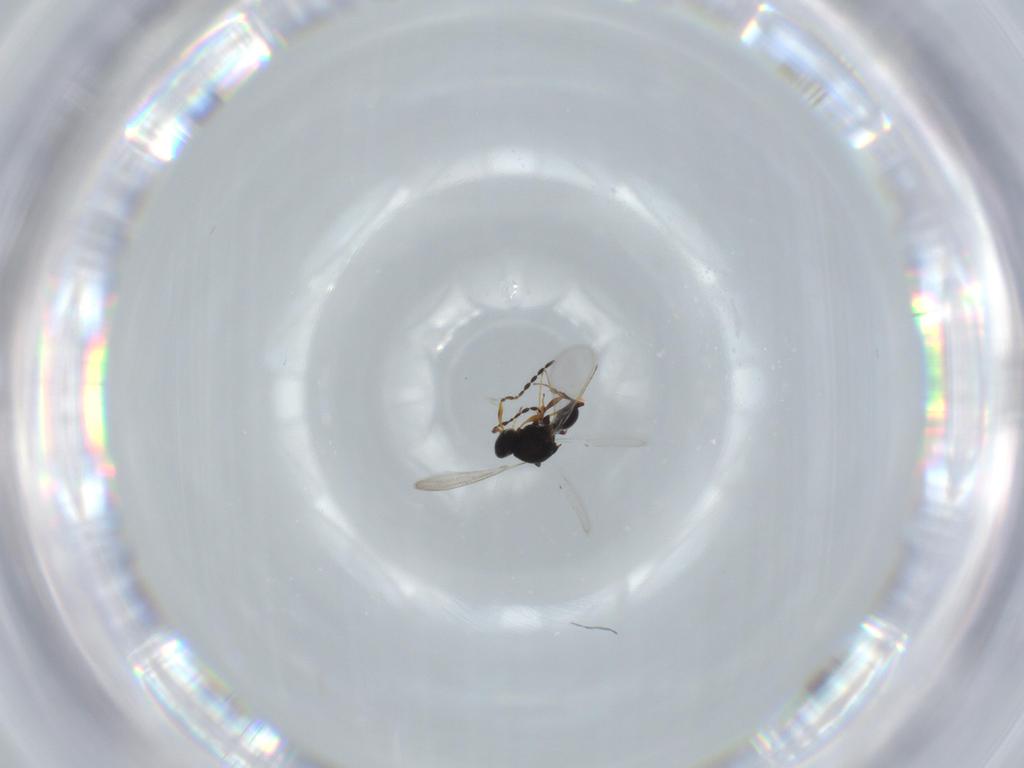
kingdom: Animalia
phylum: Arthropoda
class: Insecta
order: Hymenoptera
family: Platygastridae
